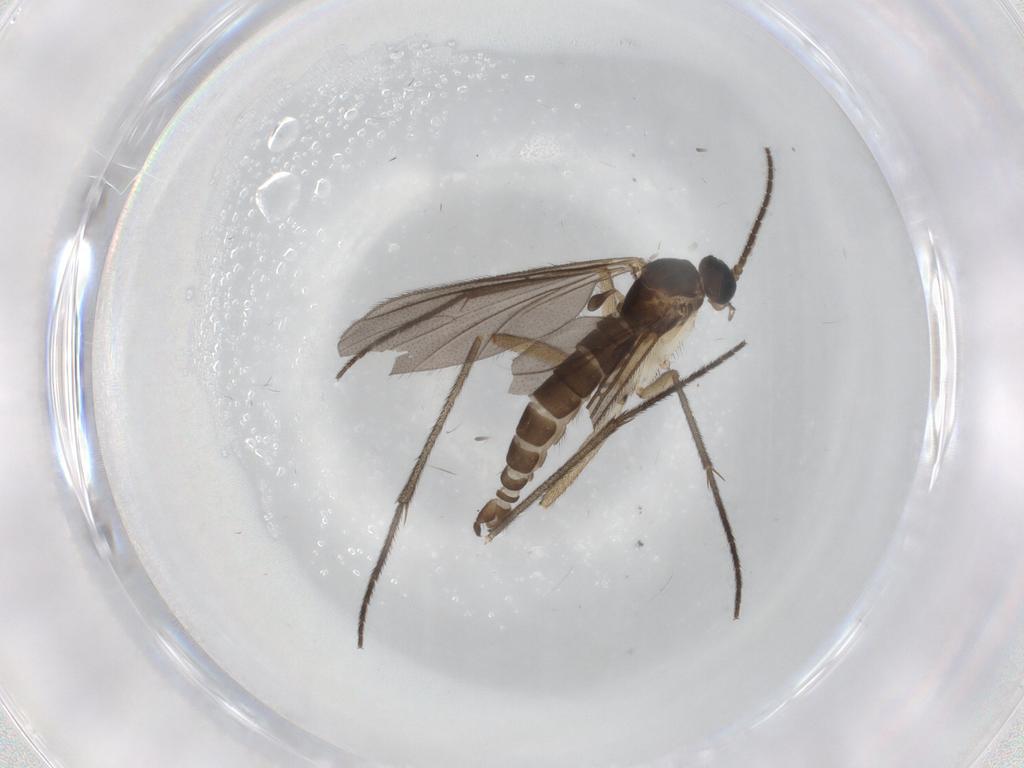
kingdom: Animalia
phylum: Arthropoda
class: Insecta
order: Diptera
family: Sciaridae
